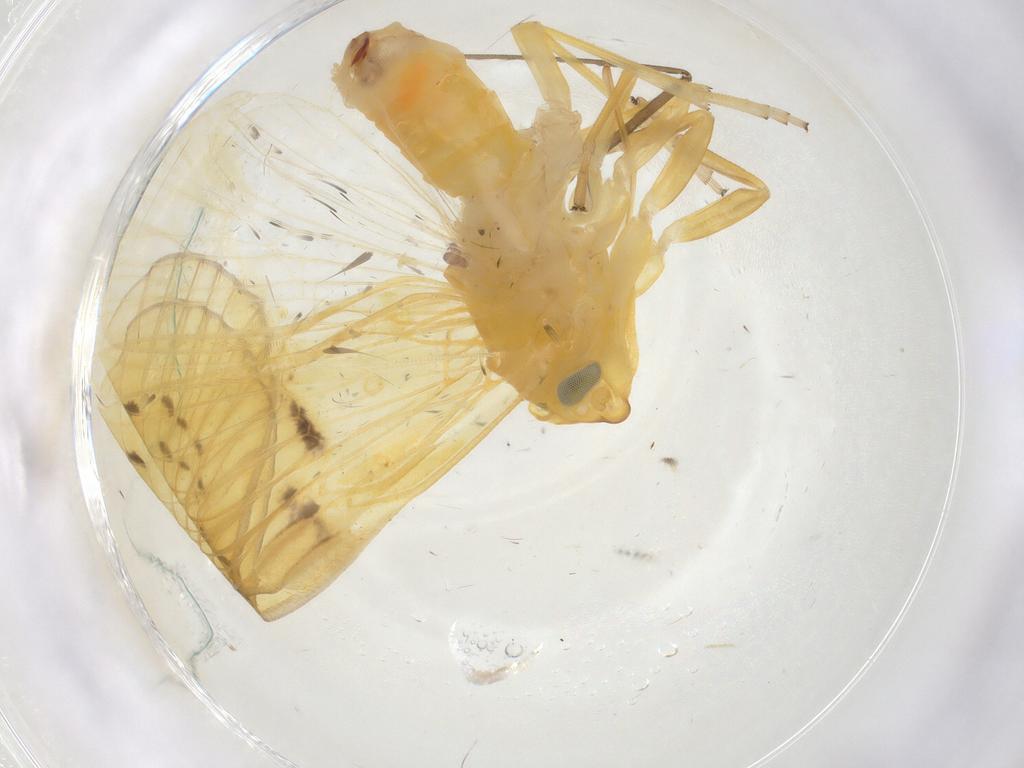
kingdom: Animalia
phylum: Arthropoda
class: Insecta
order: Hemiptera
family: Cixiidae
